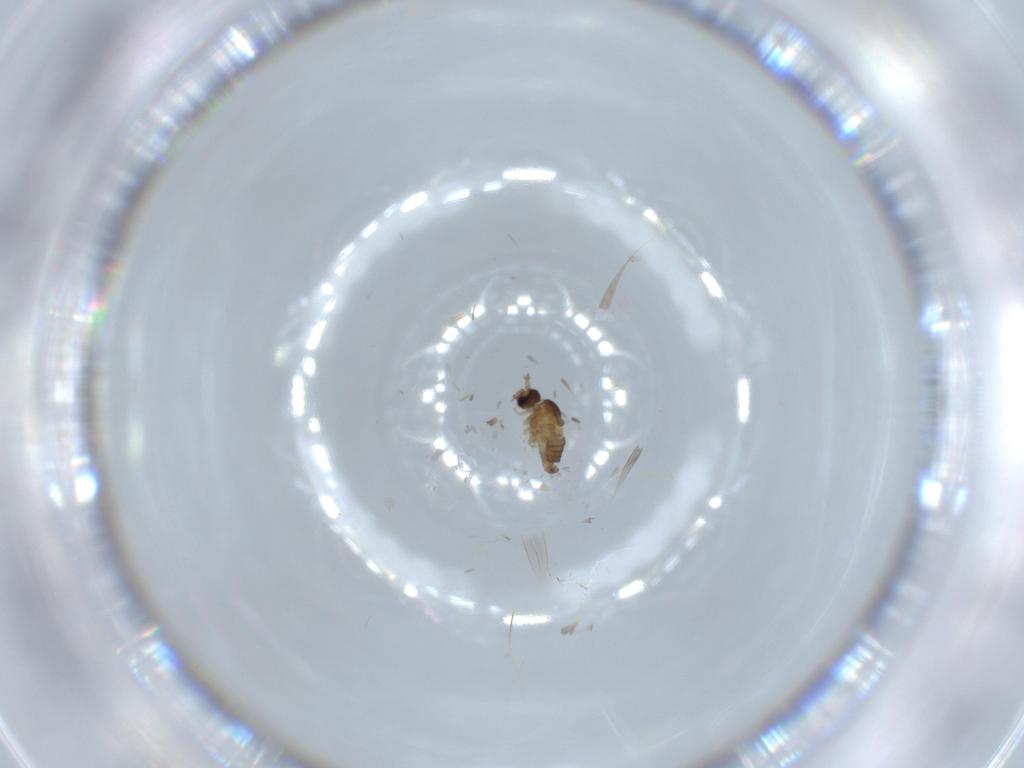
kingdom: Animalia
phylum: Arthropoda
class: Insecta
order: Diptera
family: Cecidomyiidae
